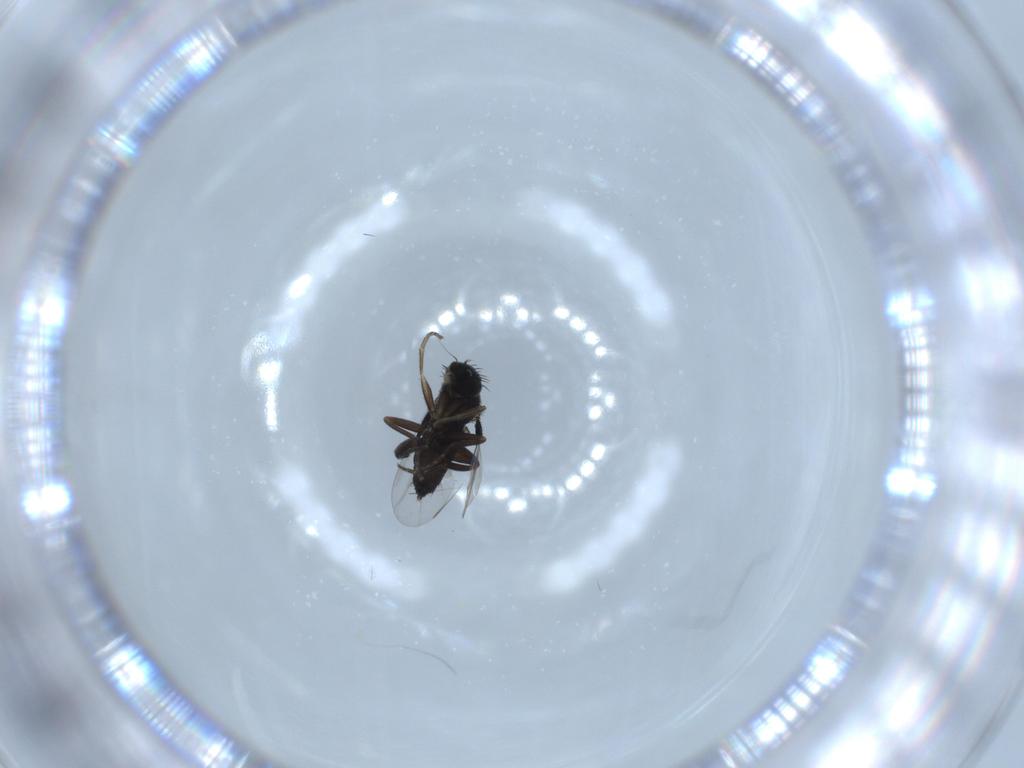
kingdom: Animalia
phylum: Arthropoda
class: Insecta
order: Diptera
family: Phoridae
